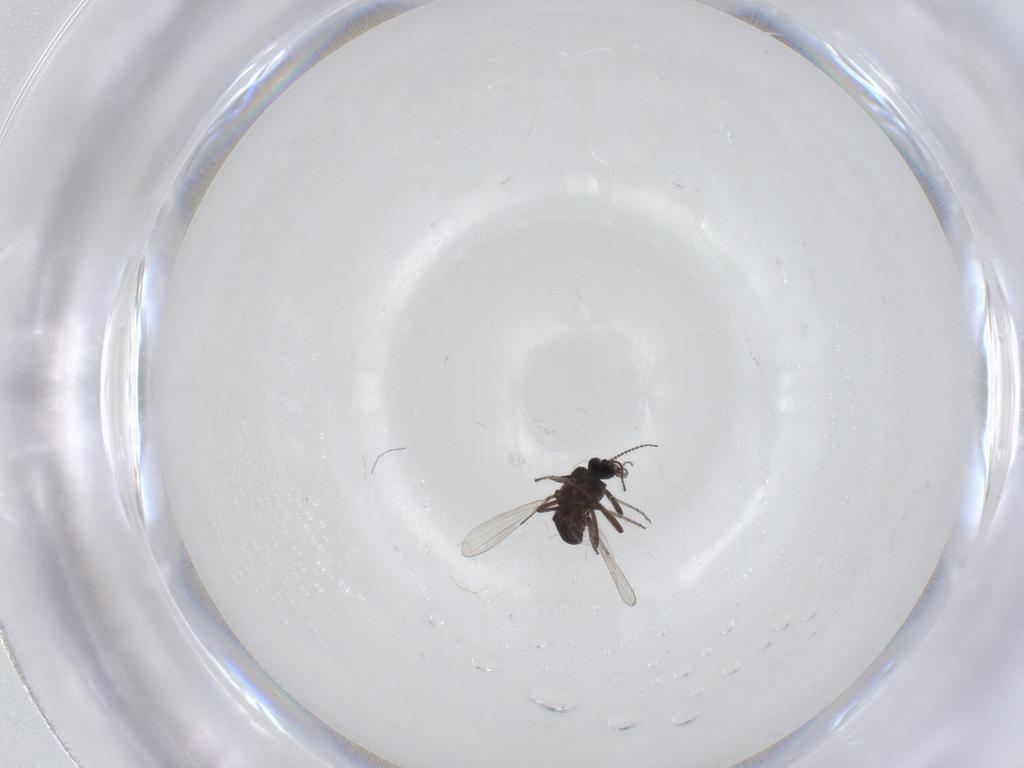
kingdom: Animalia
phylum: Arthropoda
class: Insecta
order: Diptera
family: Ceratopogonidae
